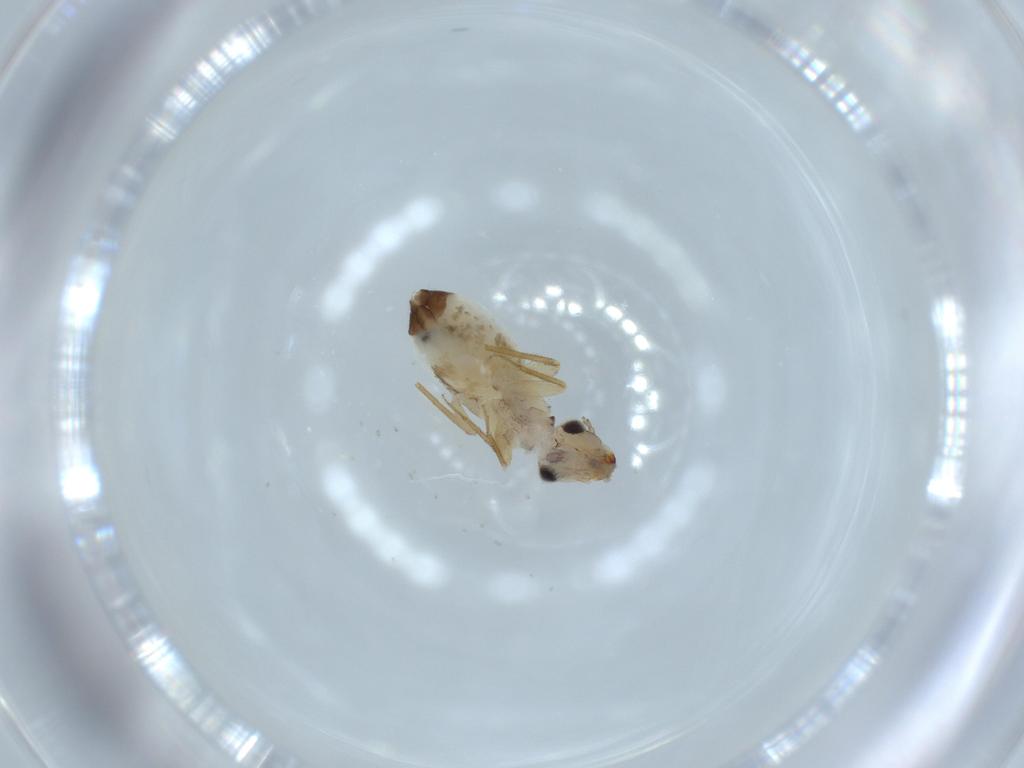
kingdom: Animalia
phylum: Arthropoda
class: Insecta
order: Psocodea
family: Lepidopsocidae
